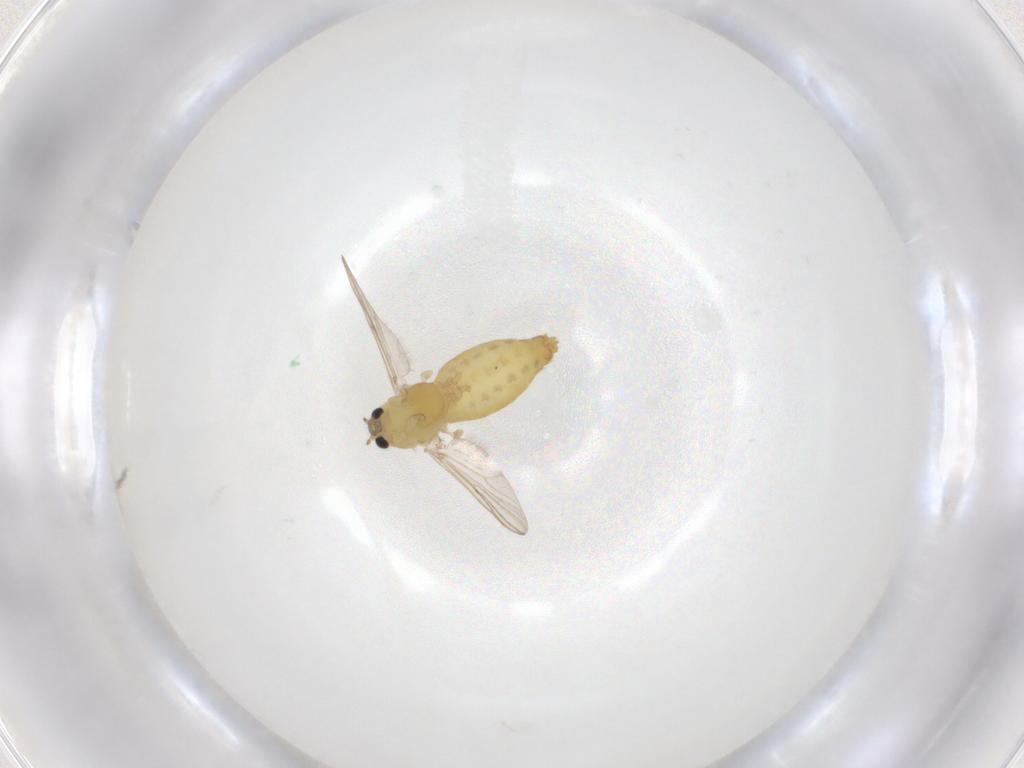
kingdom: Animalia
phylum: Arthropoda
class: Insecta
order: Diptera
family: Chironomidae
